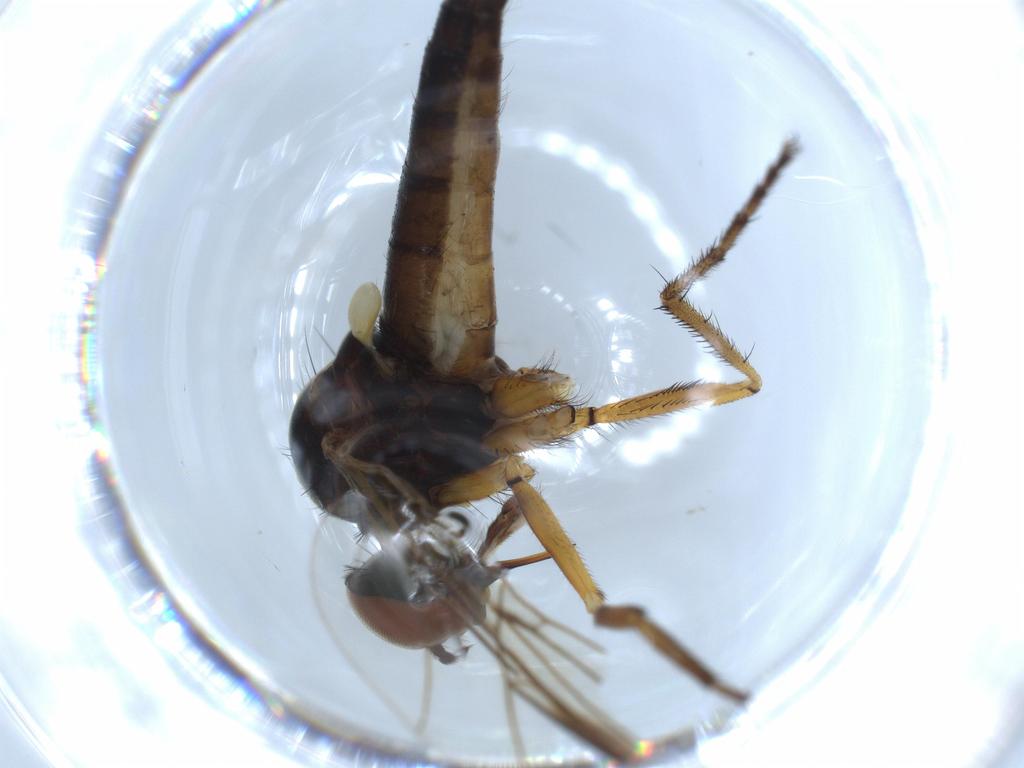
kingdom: Animalia
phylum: Arthropoda
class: Insecta
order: Diptera
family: Empididae
